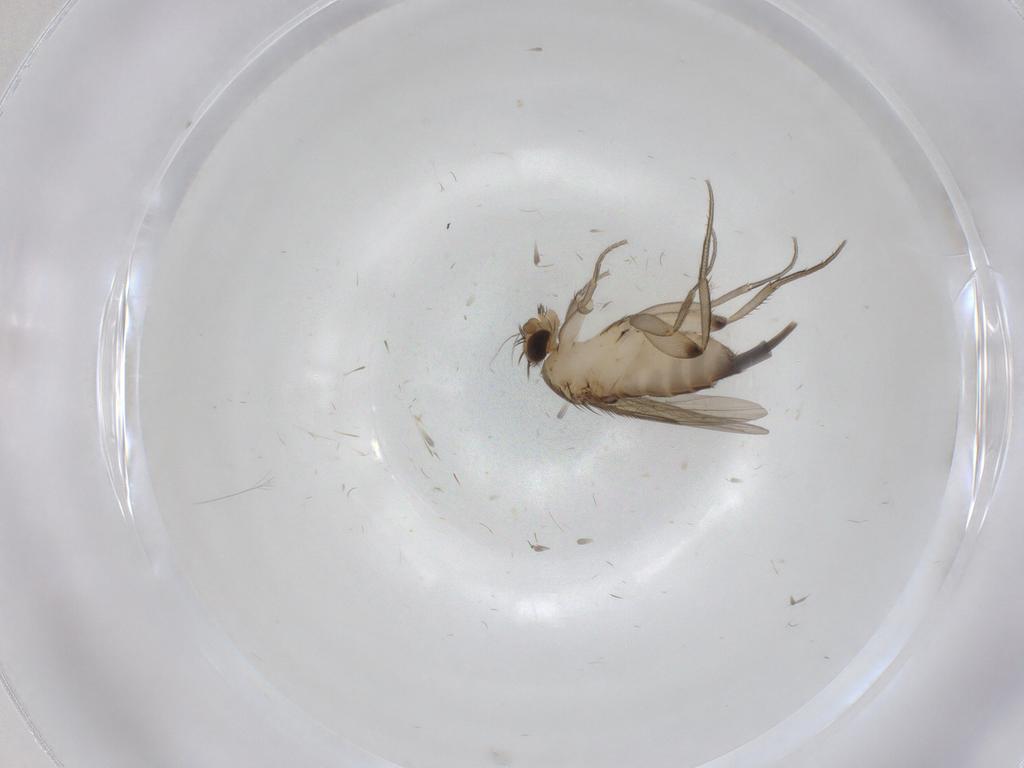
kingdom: Animalia
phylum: Arthropoda
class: Insecta
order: Diptera
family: Phoridae
